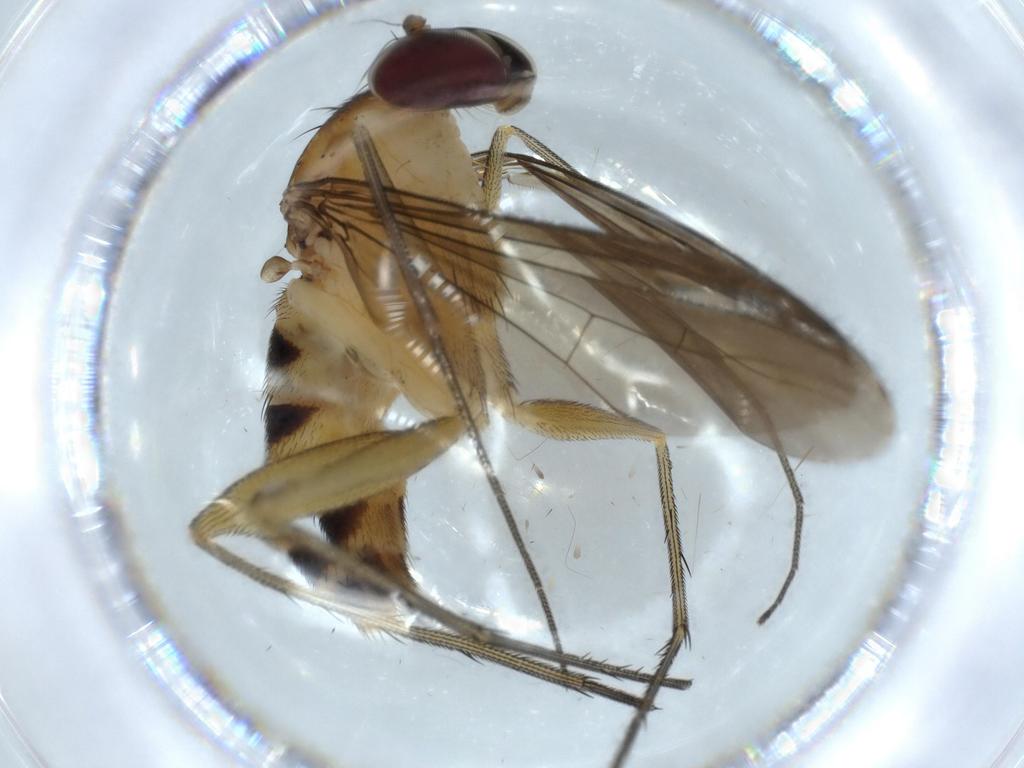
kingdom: Animalia
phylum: Arthropoda
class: Insecta
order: Diptera
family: Dolichopodidae
